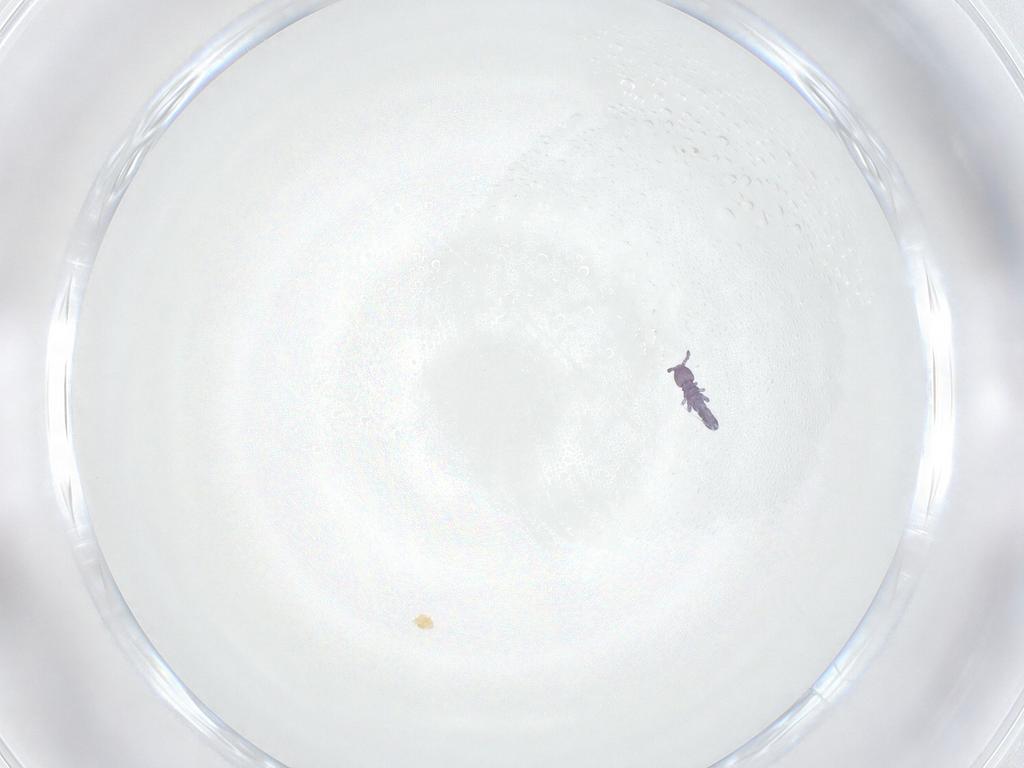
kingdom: Animalia
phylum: Arthropoda
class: Collembola
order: Entomobryomorpha
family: Isotomidae
